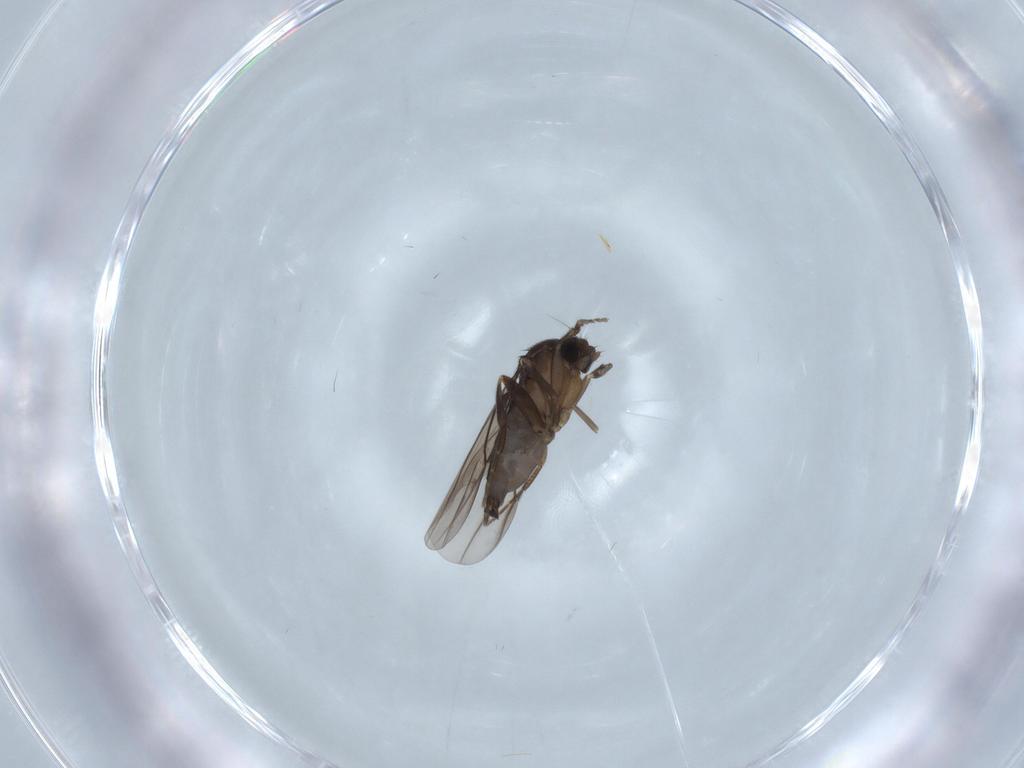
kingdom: Animalia
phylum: Arthropoda
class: Insecta
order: Diptera
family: Phoridae
